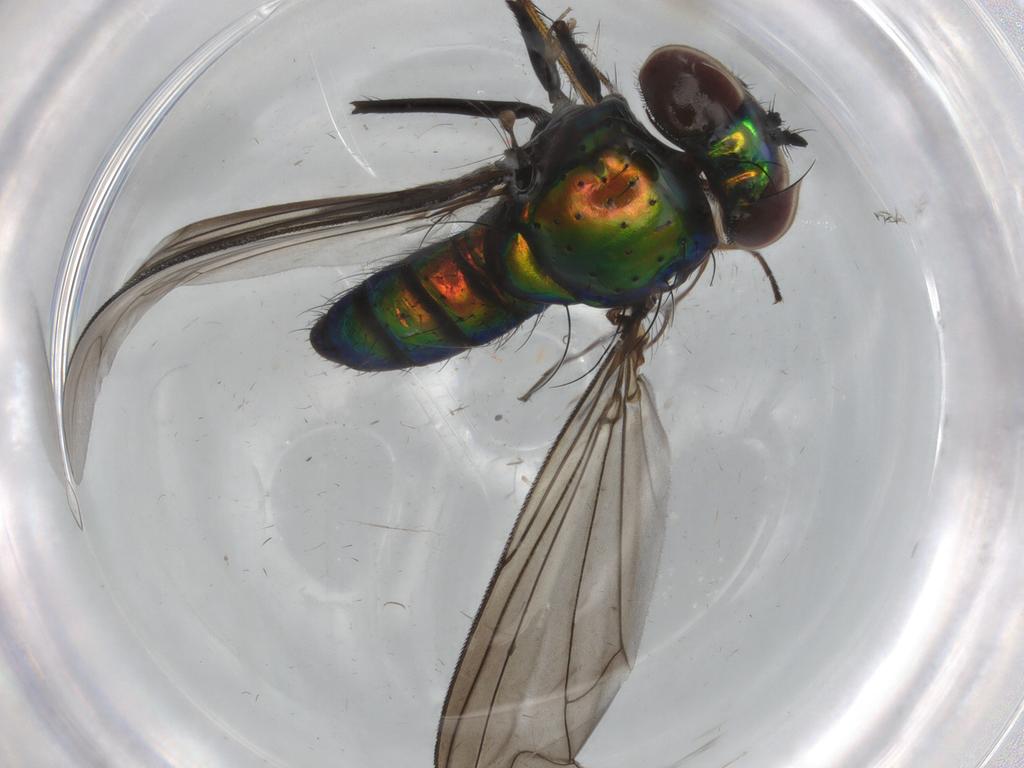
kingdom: Animalia
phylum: Arthropoda
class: Insecta
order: Diptera
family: Dolichopodidae
